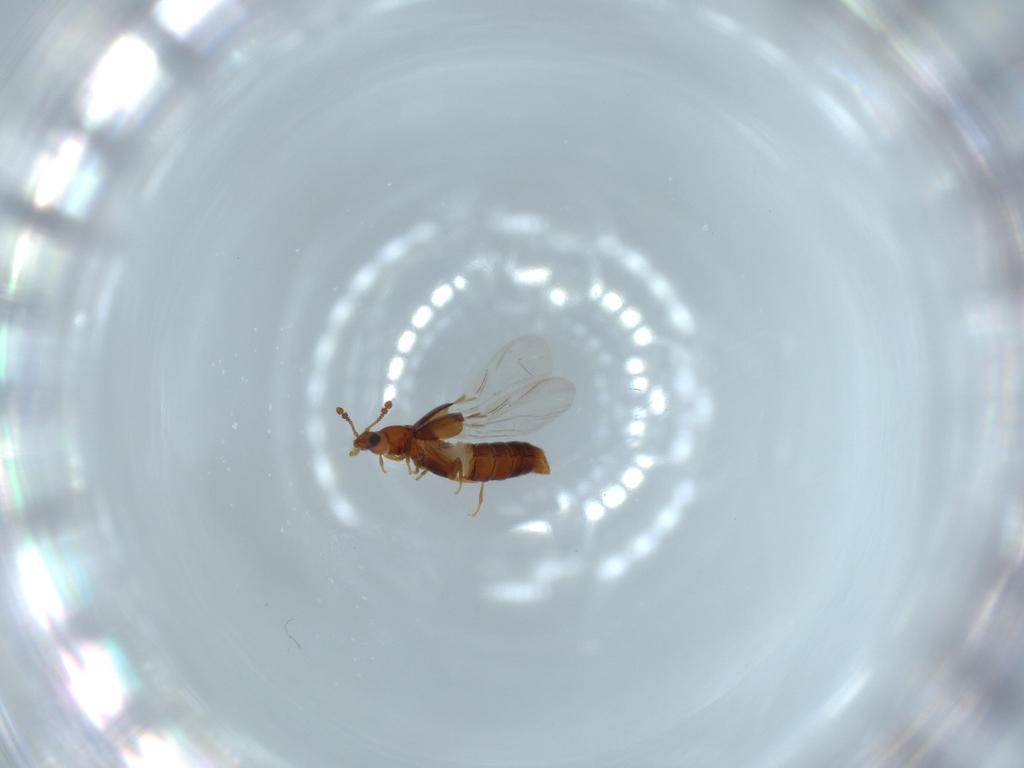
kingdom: Animalia
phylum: Arthropoda
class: Insecta
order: Coleoptera
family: Staphylinidae
